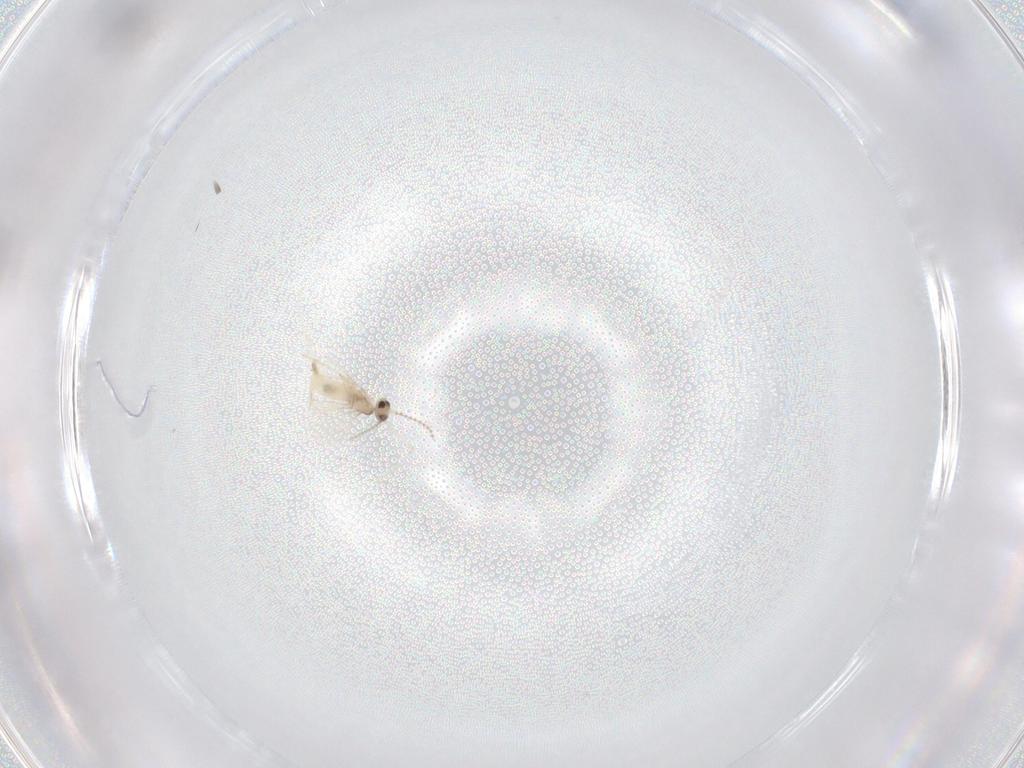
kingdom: Animalia
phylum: Arthropoda
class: Insecta
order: Diptera
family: Cecidomyiidae
